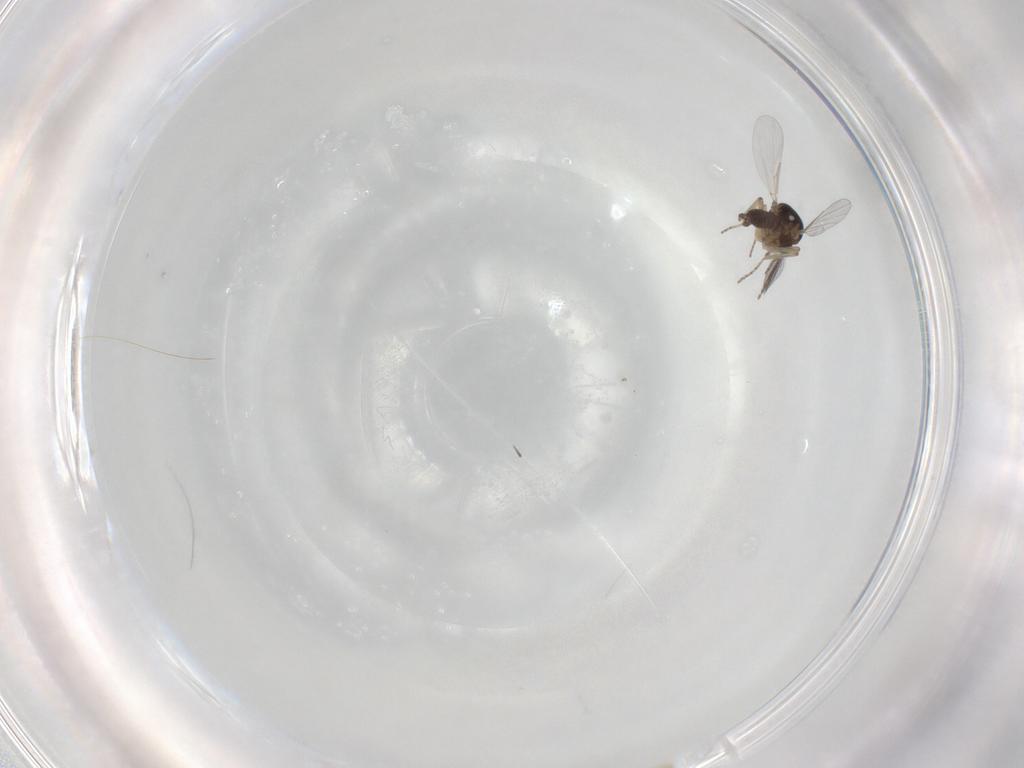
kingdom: Animalia
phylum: Arthropoda
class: Insecta
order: Diptera
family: Ceratopogonidae
